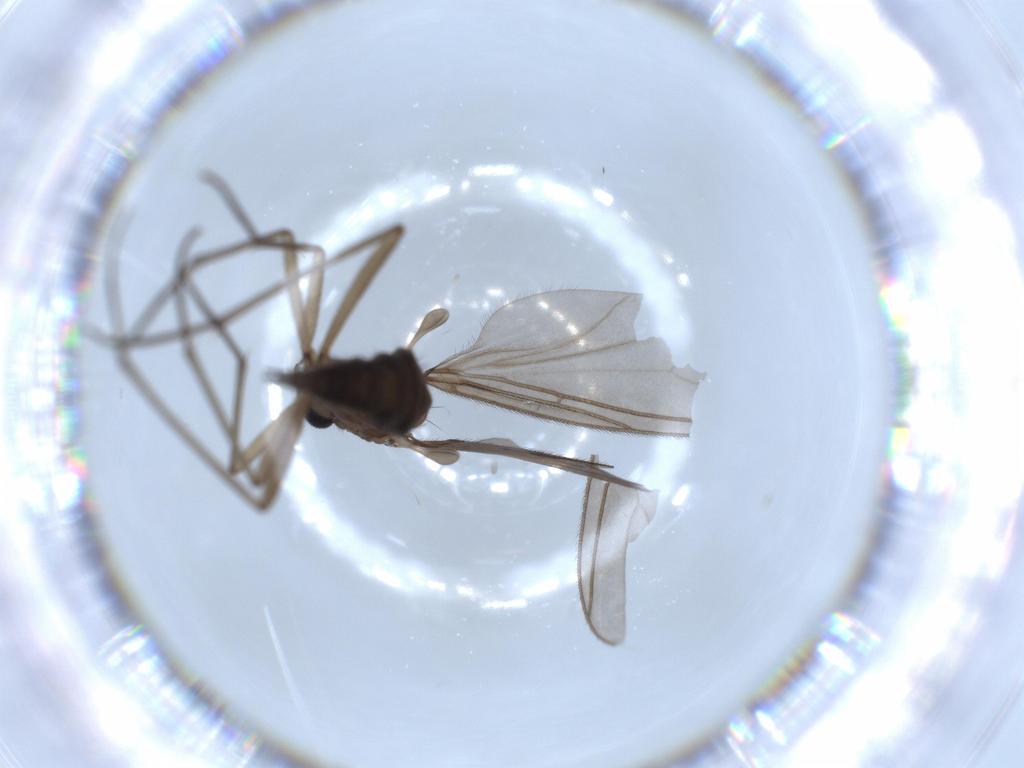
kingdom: Animalia
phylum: Arthropoda
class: Insecta
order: Diptera
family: Sciaridae
